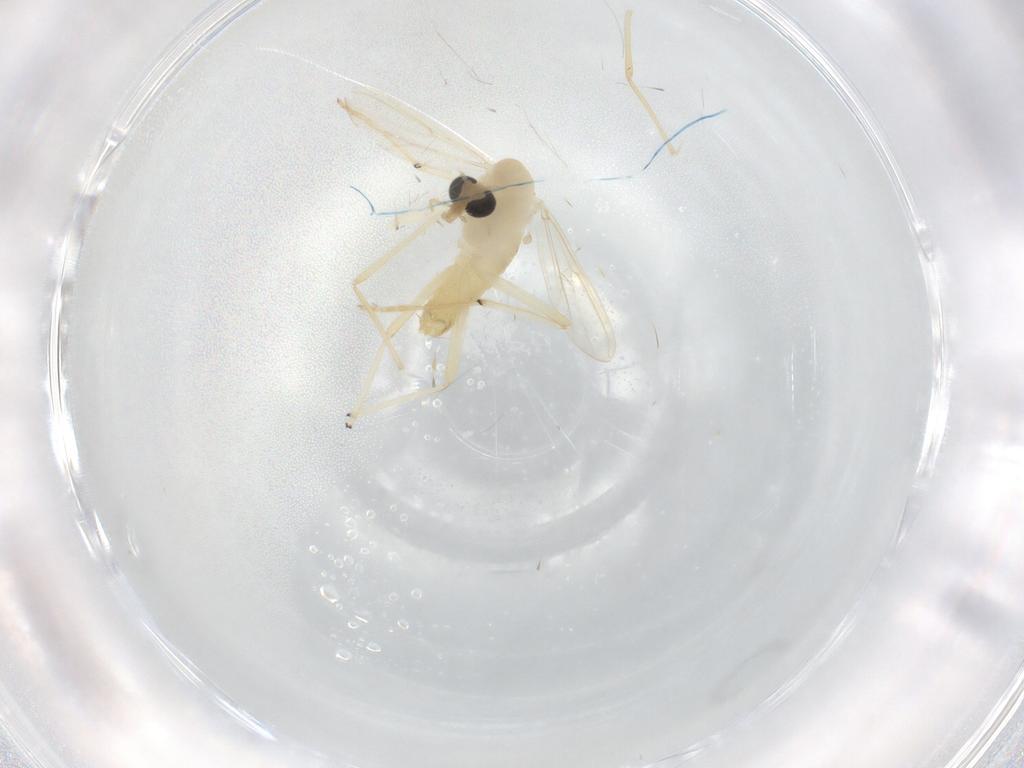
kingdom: Animalia
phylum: Arthropoda
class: Insecta
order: Diptera
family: Chironomidae
